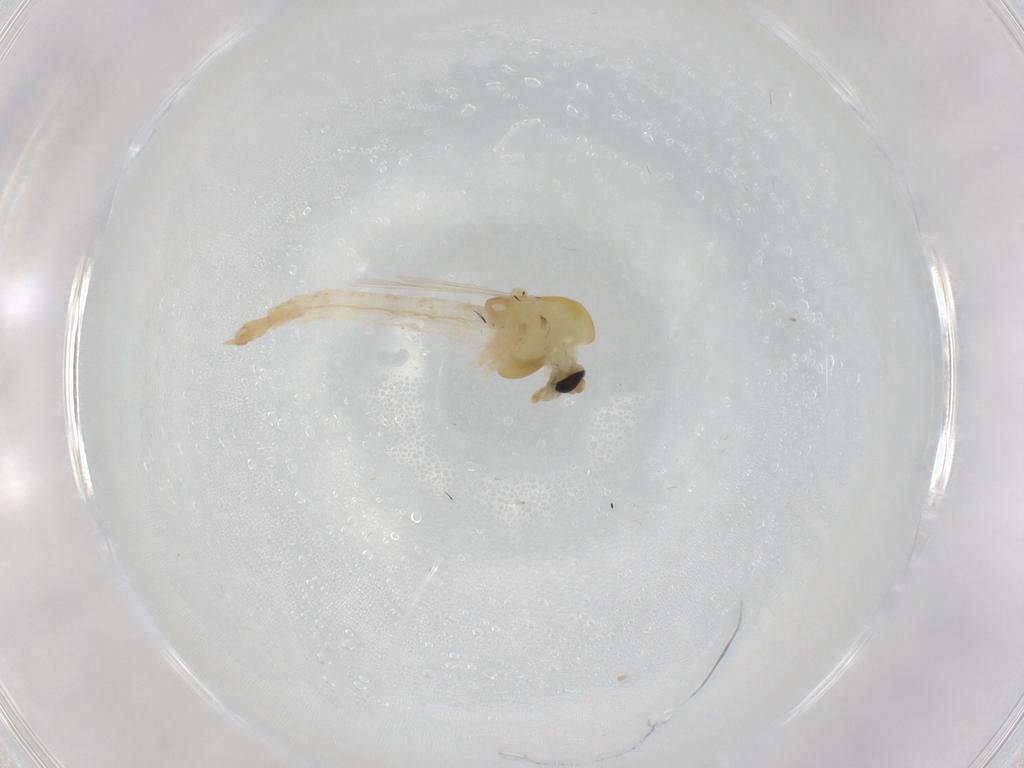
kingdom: Animalia
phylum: Arthropoda
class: Insecta
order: Diptera
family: Chironomidae
